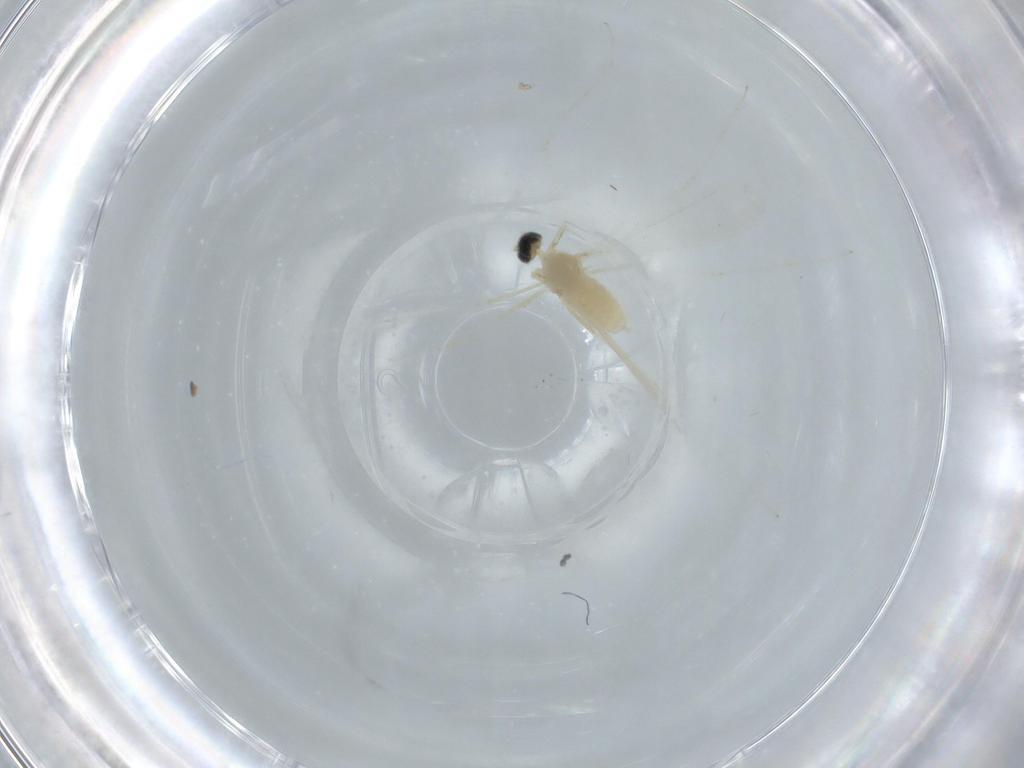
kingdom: Animalia
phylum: Arthropoda
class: Insecta
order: Diptera
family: Cecidomyiidae
